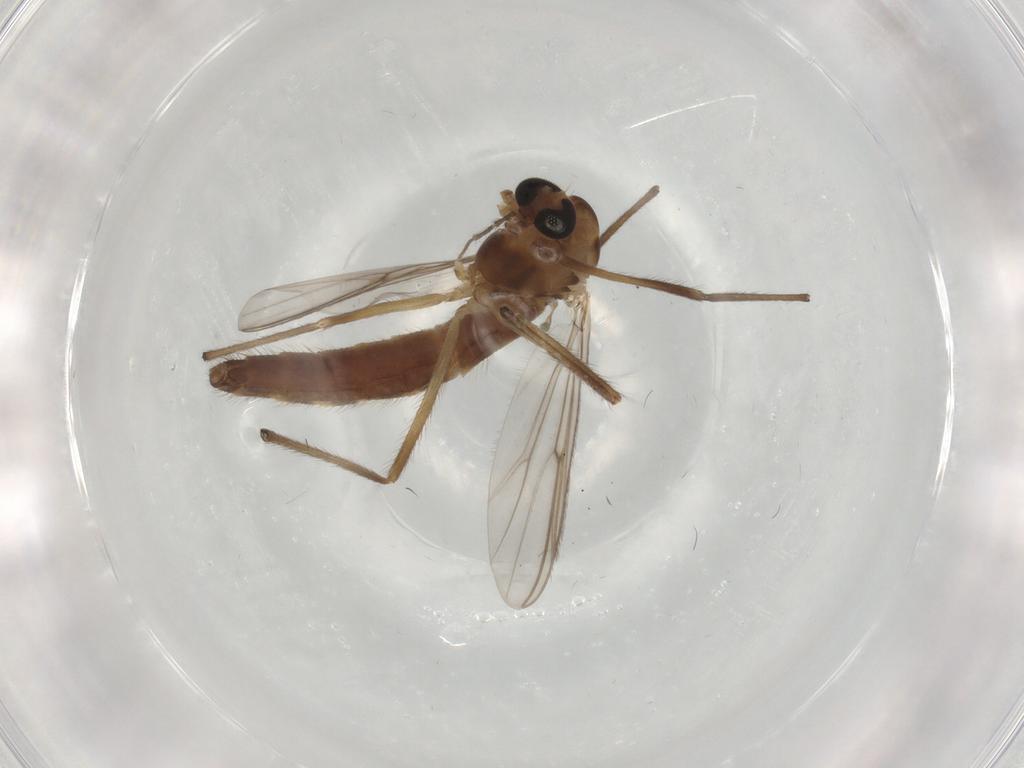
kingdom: Animalia
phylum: Arthropoda
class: Insecta
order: Diptera
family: Chironomidae
